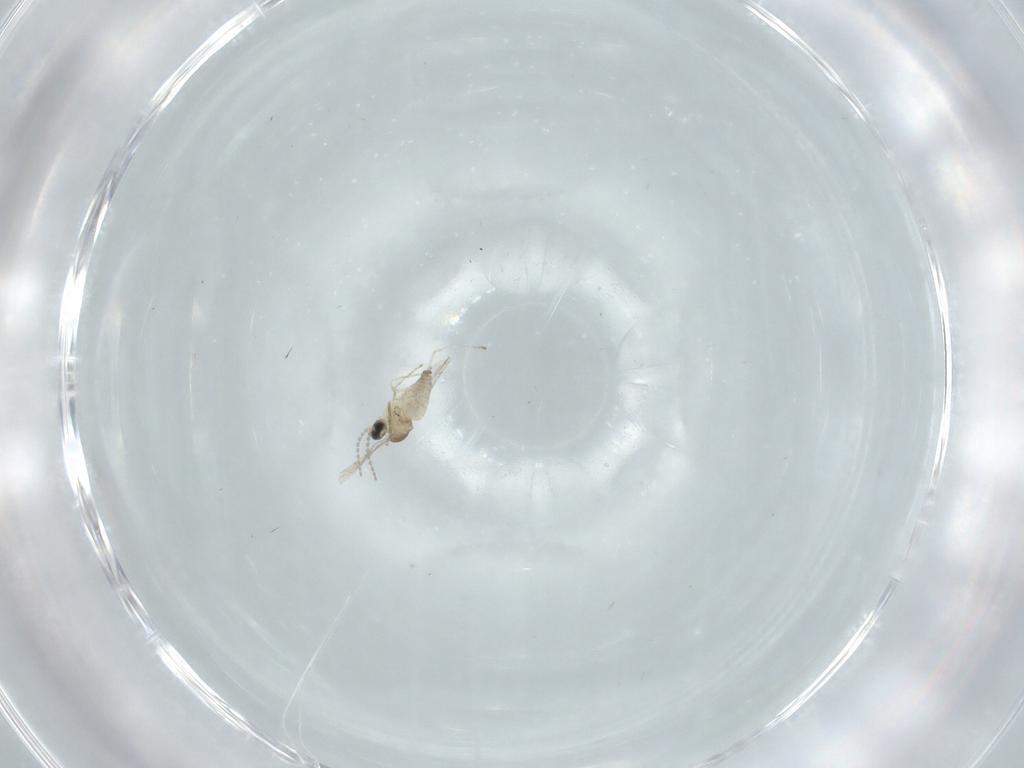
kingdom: Animalia
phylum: Arthropoda
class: Insecta
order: Diptera
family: Cecidomyiidae
